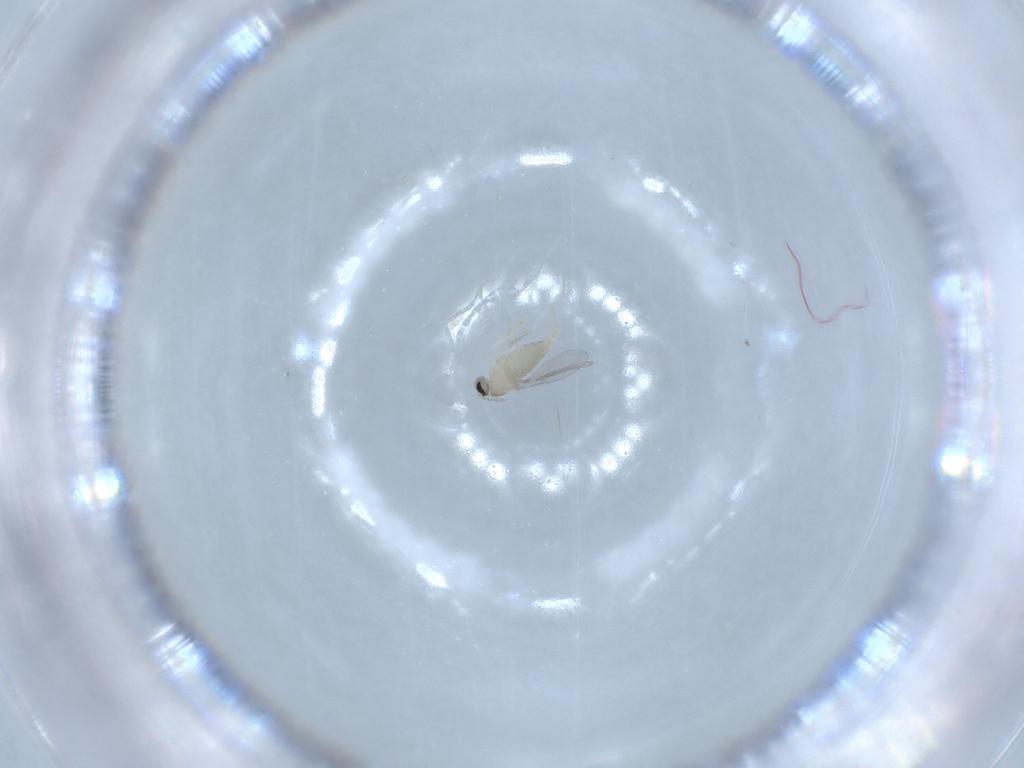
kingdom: Animalia
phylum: Arthropoda
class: Insecta
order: Diptera
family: Cecidomyiidae
